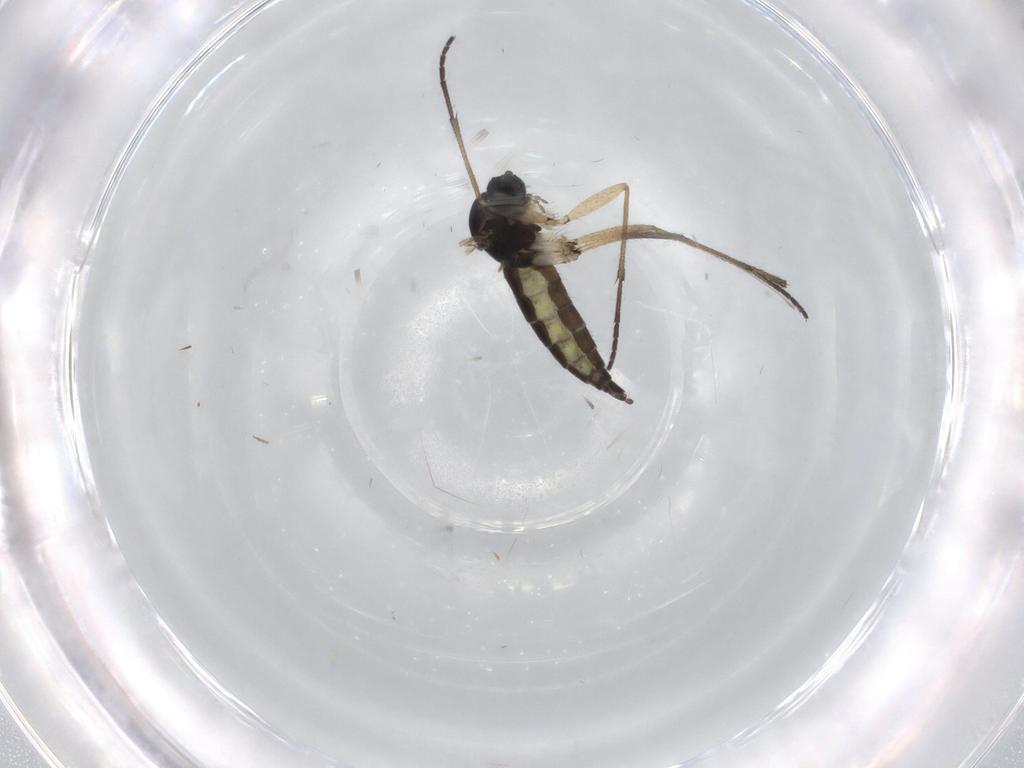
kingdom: Animalia
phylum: Arthropoda
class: Insecta
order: Diptera
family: Sciaridae
